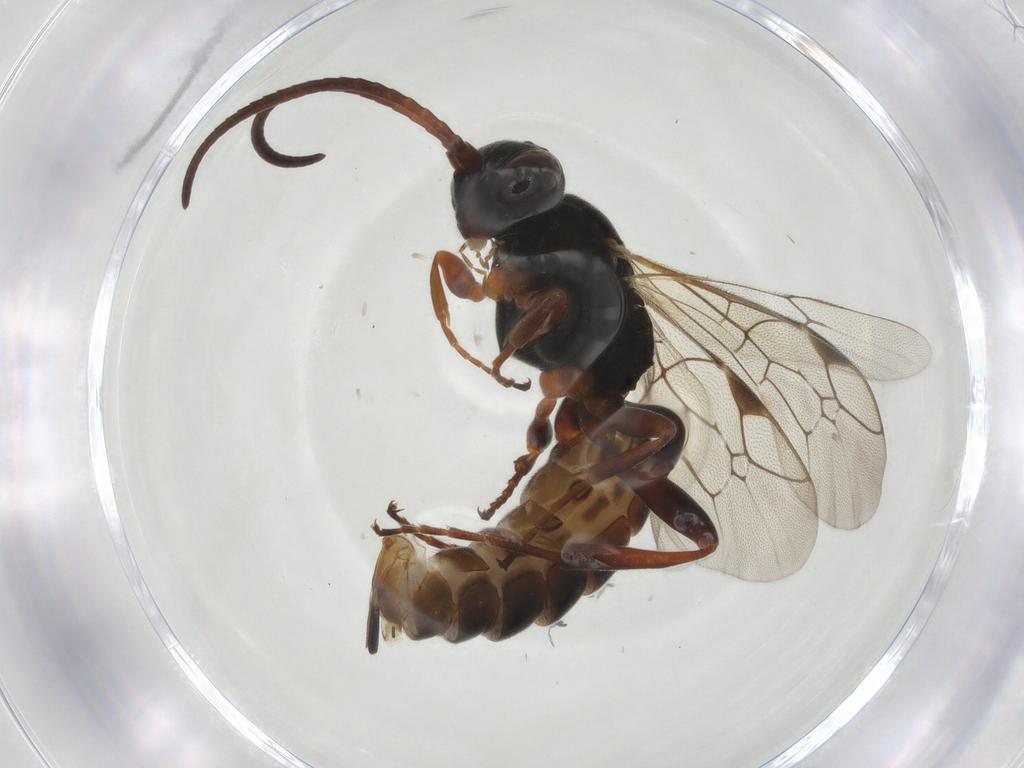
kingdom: Animalia
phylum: Arthropoda
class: Insecta
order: Hymenoptera
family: Ichneumonidae
